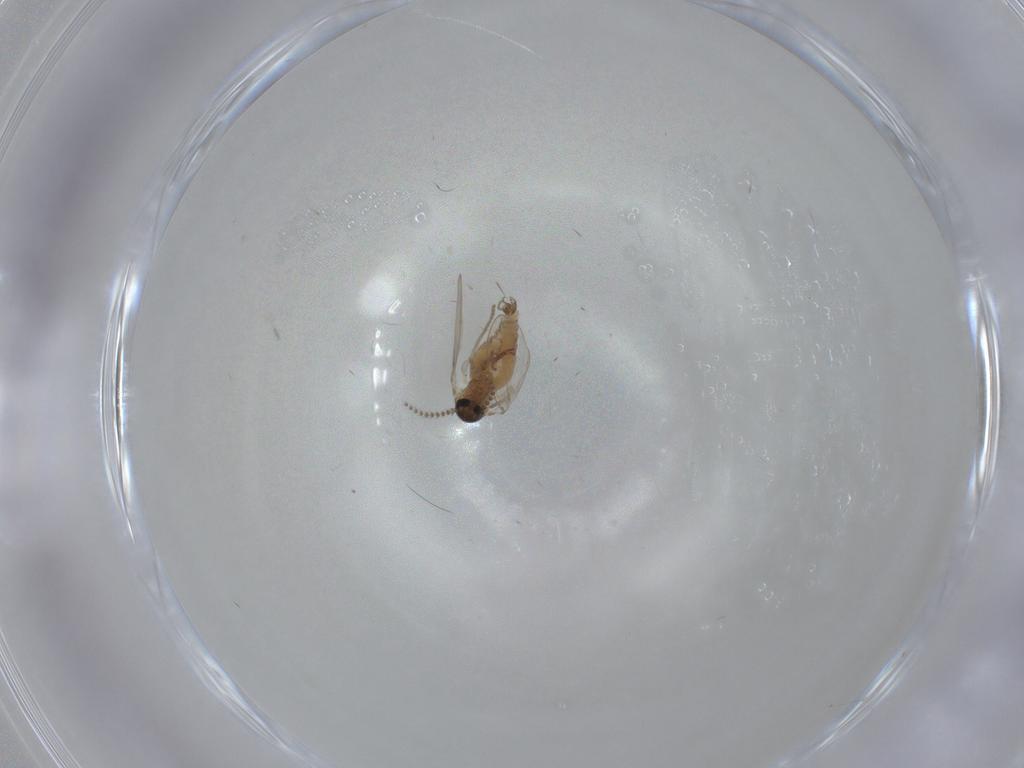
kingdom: Animalia
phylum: Arthropoda
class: Insecta
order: Diptera
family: Psychodidae
